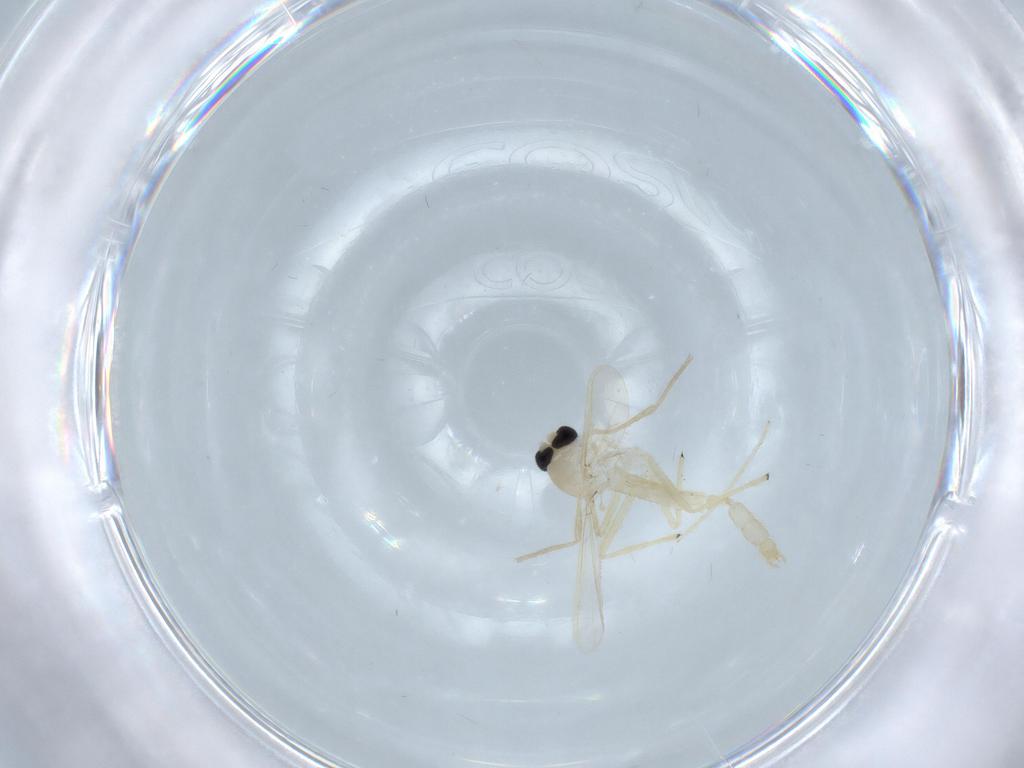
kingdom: Animalia
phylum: Arthropoda
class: Insecta
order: Diptera
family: Chironomidae
